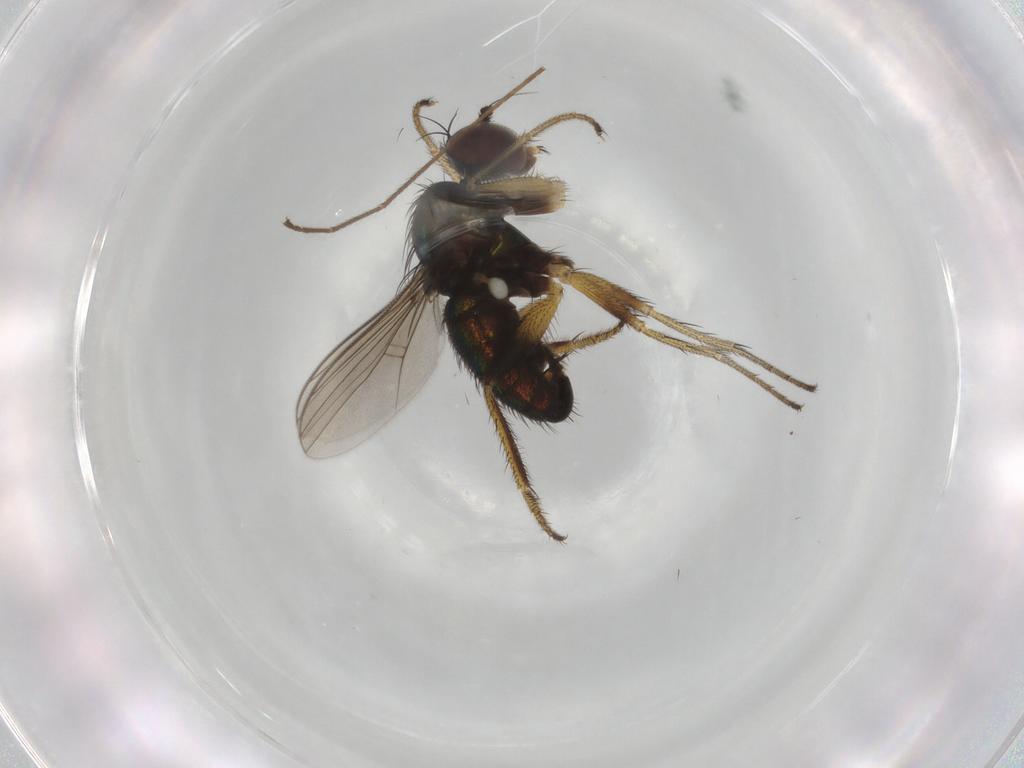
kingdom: Animalia
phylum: Arthropoda
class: Insecta
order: Diptera
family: Dolichopodidae
